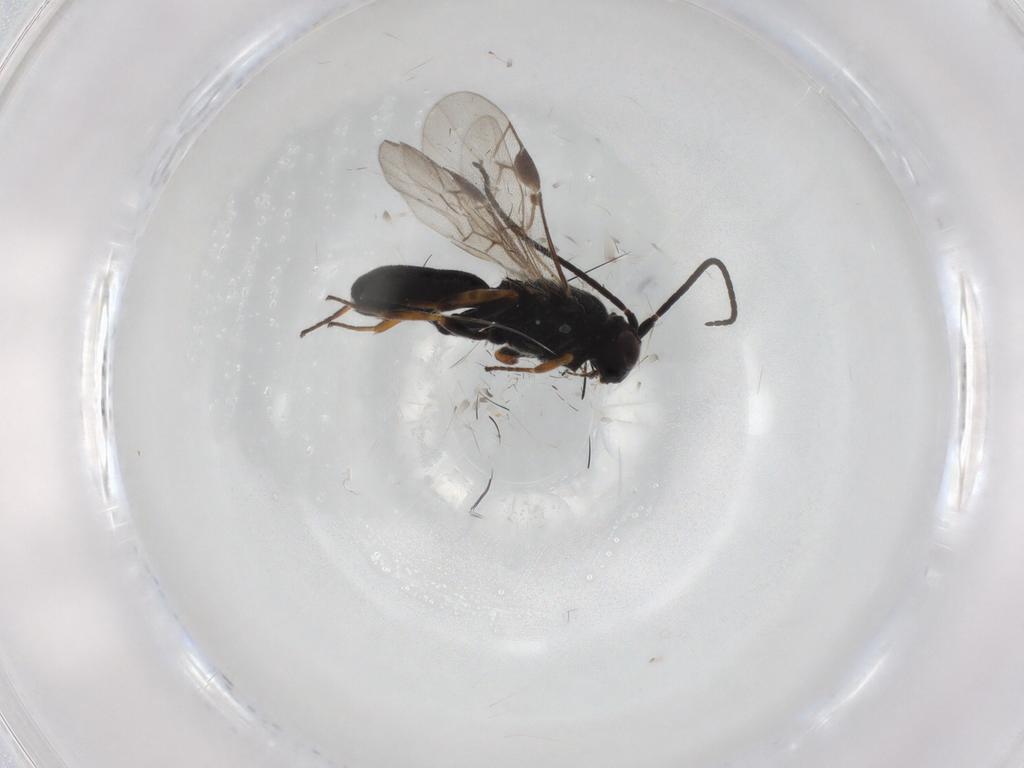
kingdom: Animalia
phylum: Arthropoda
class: Insecta
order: Hymenoptera
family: Braconidae
